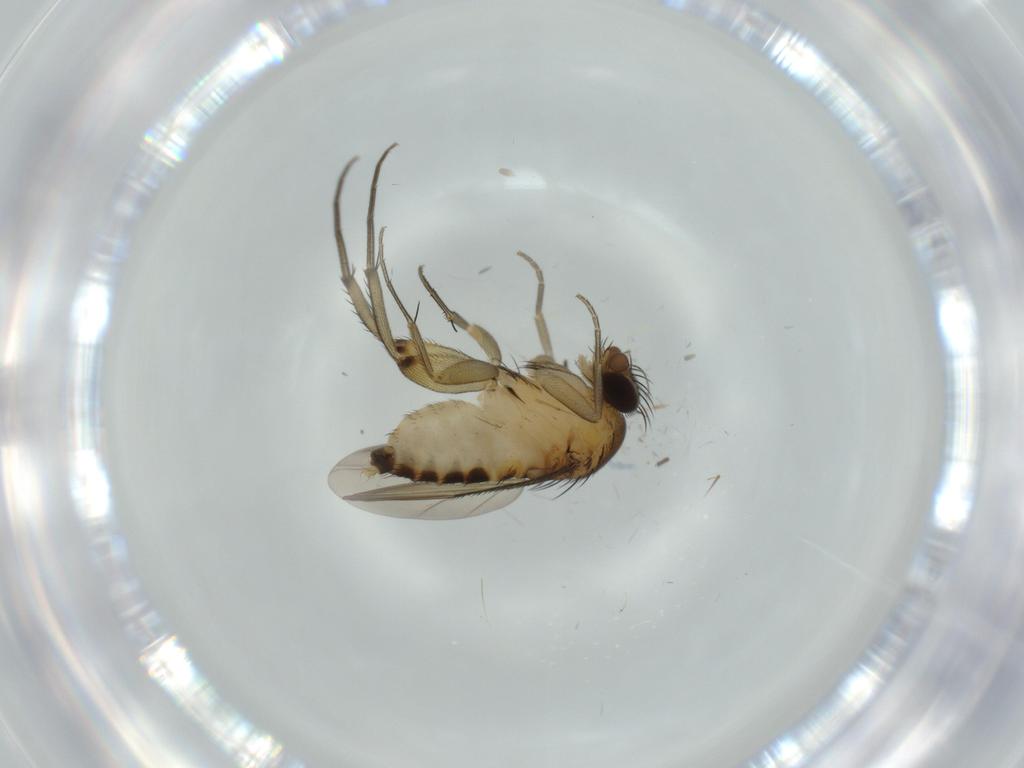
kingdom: Animalia
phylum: Arthropoda
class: Insecta
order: Diptera
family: Phoridae
